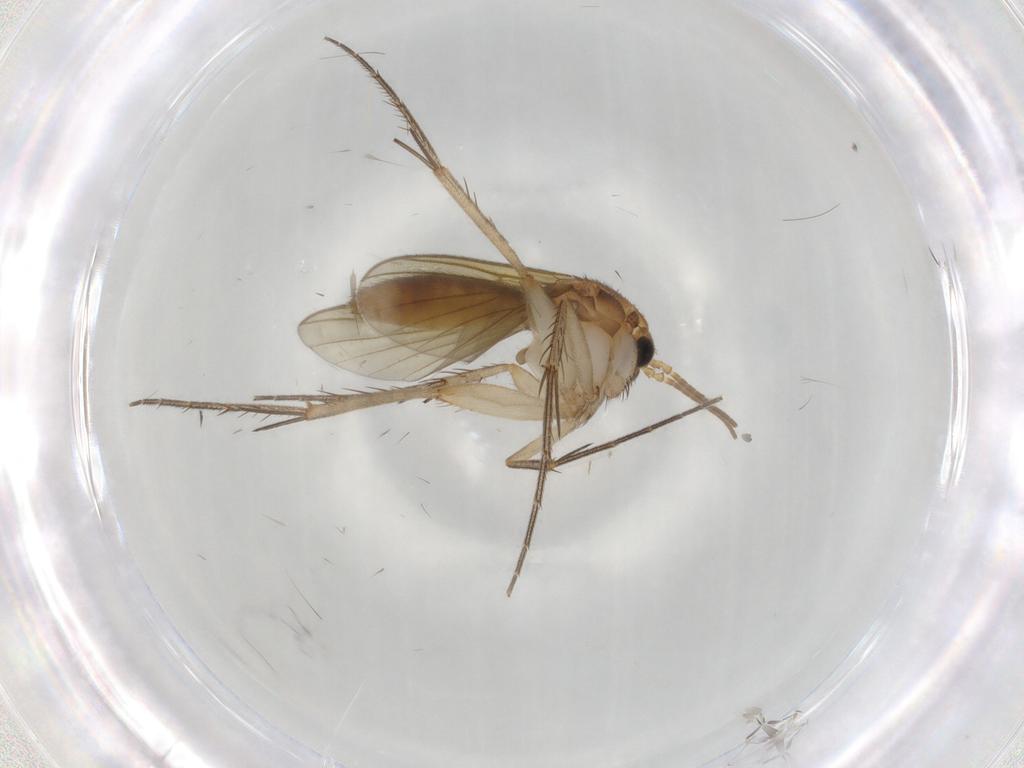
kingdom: Animalia
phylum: Arthropoda
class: Insecta
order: Diptera
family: Mycetophilidae
